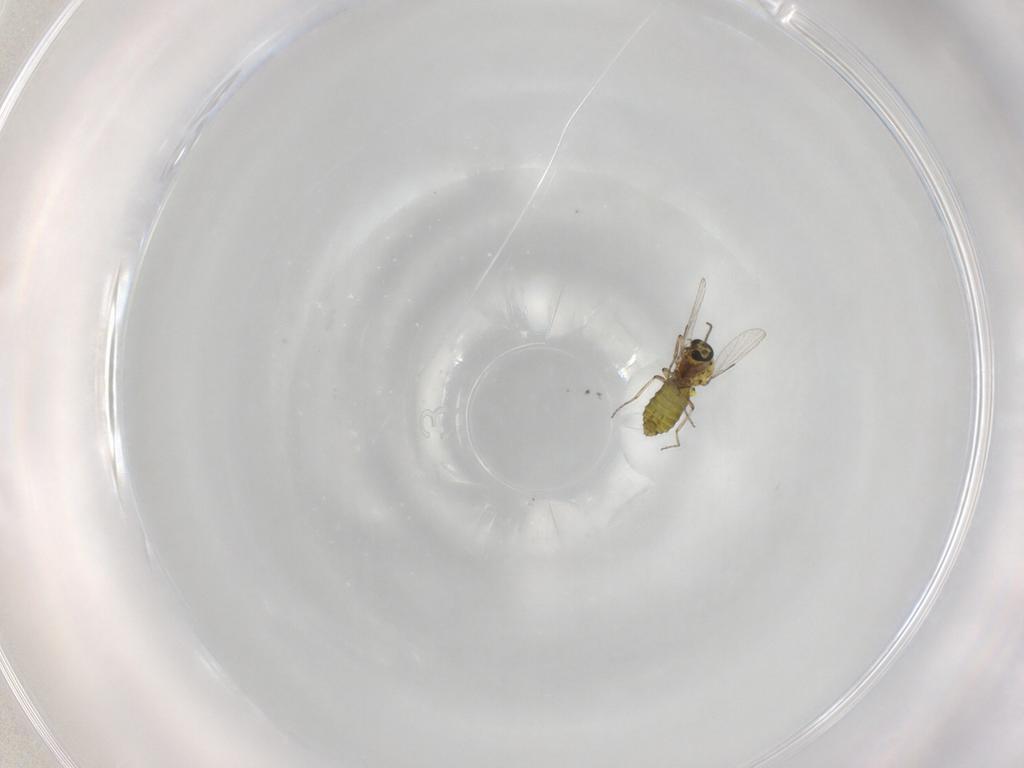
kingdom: Animalia
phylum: Arthropoda
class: Insecta
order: Diptera
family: Ceratopogonidae
